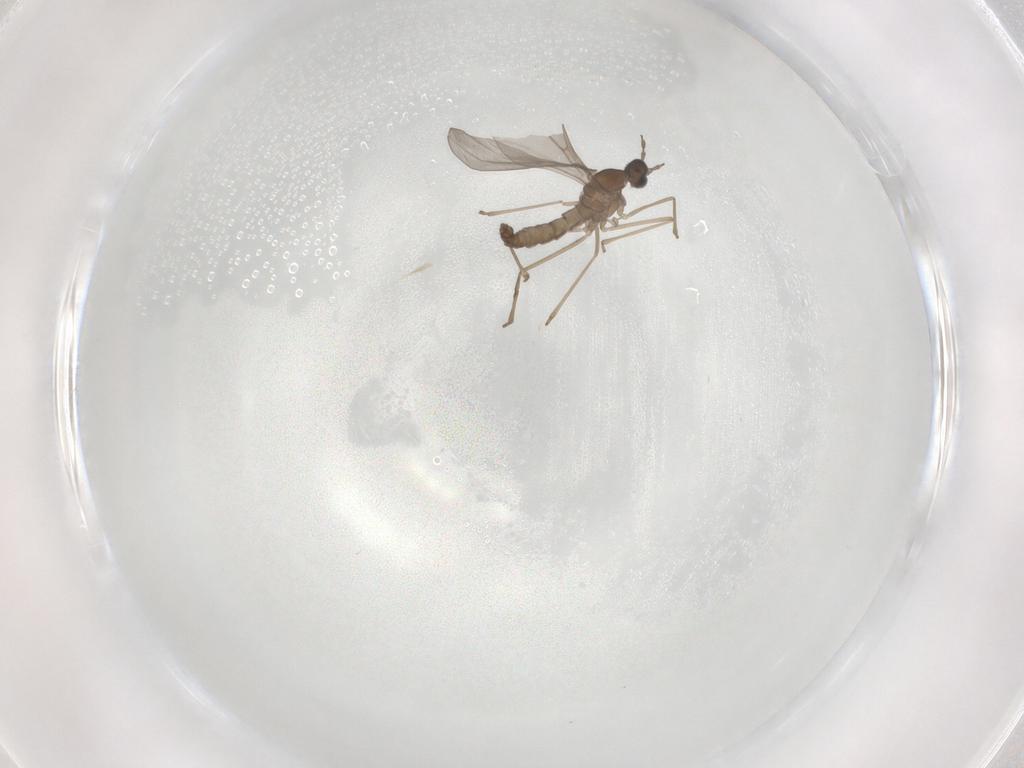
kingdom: Animalia
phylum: Arthropoda
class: Insecta
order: Diptera
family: Cecidomyiidae
